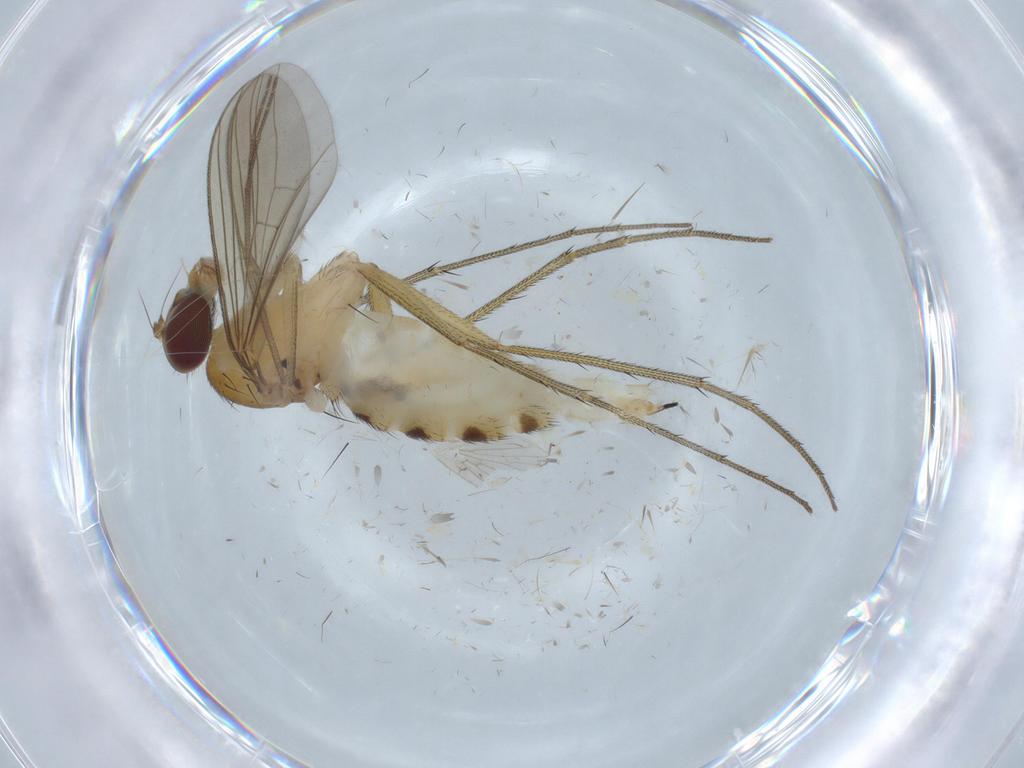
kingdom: Animalia
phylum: Arthropoda
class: Insecta
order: Diptera
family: Dolichopodidae
